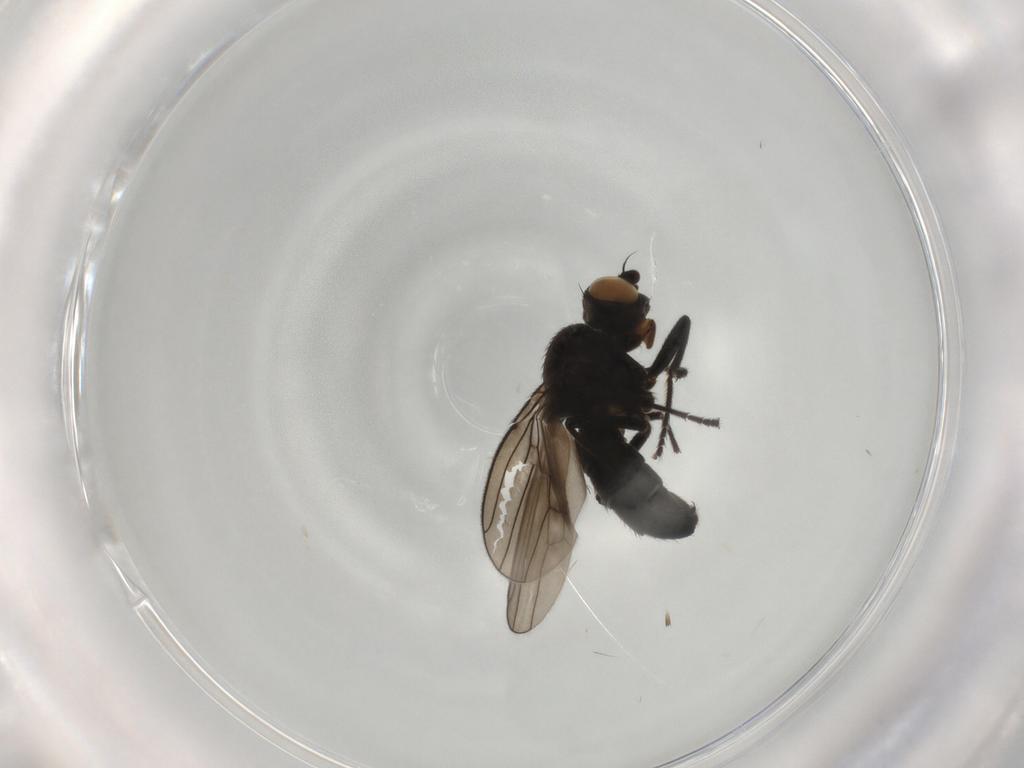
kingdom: Animalia
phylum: Arthropoda
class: Insecta
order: Diptera
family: Ephydridae
